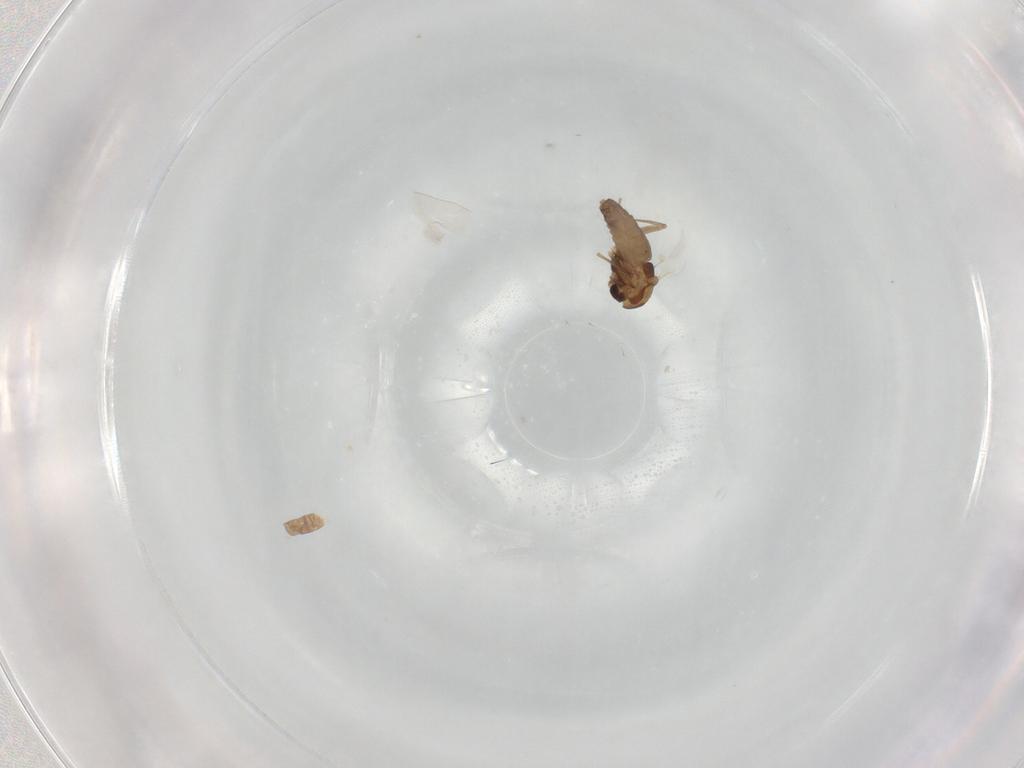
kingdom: Animalia
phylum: Arthropoda
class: Insecta
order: Diptera
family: Chironomidae
